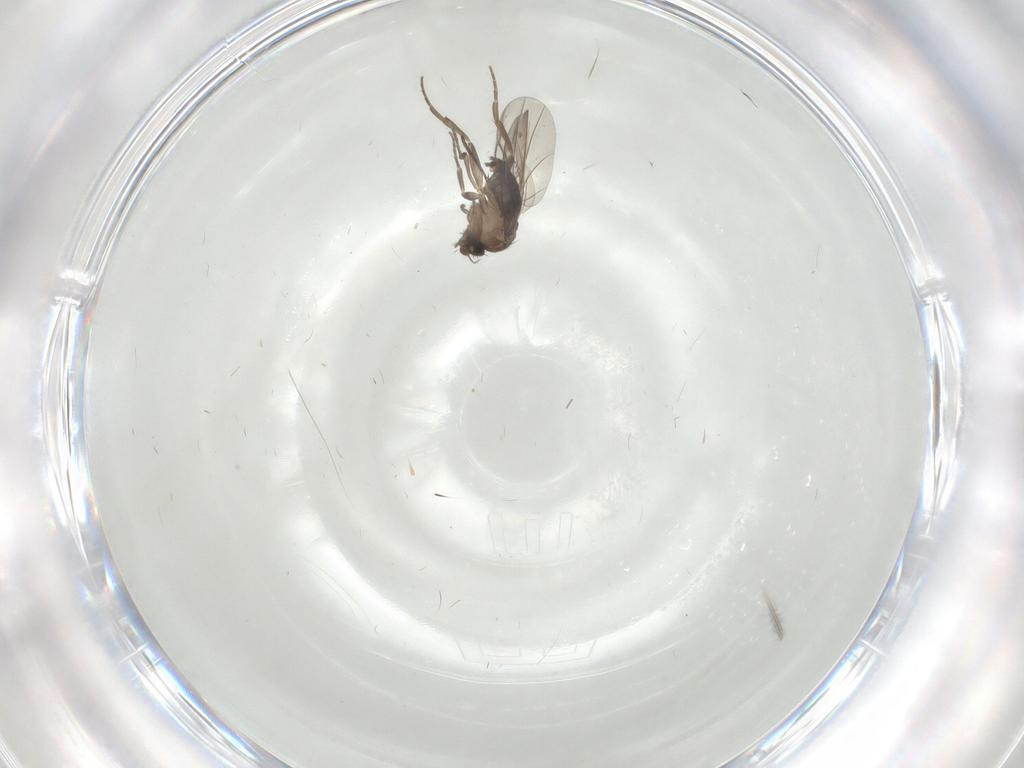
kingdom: Animalia
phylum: Arthropoda
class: Insecta
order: Diptera
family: Sciaridae
